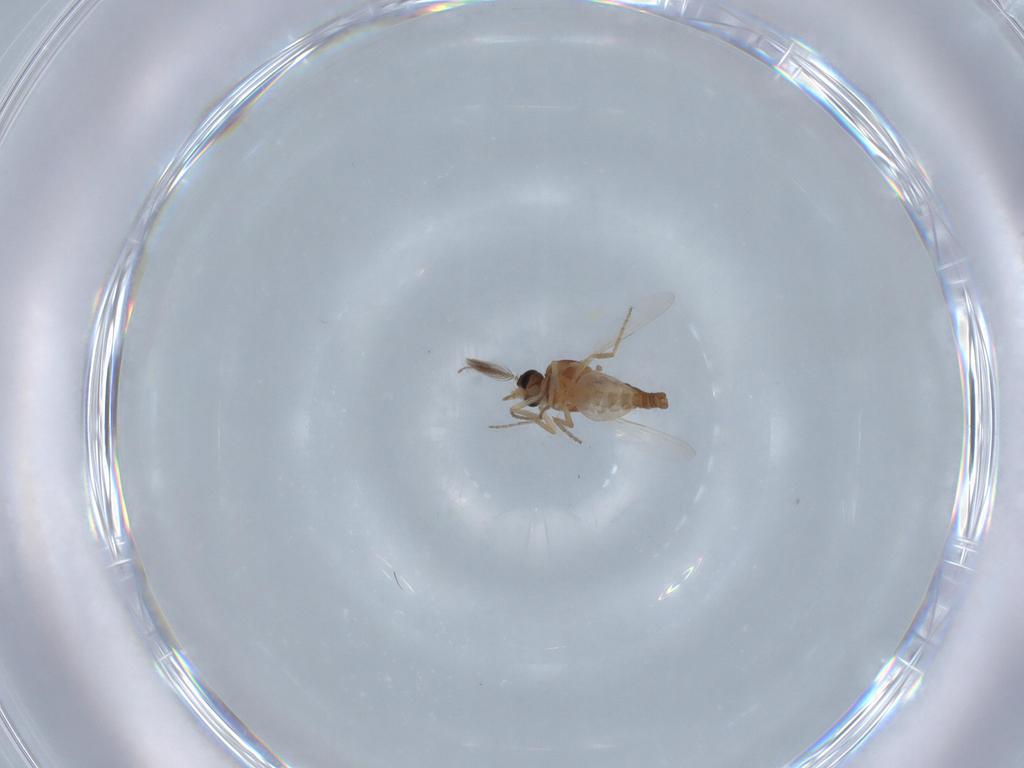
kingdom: Animalia
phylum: Arthropoda
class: Insecta
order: Diptera
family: Ceratopogonidae
